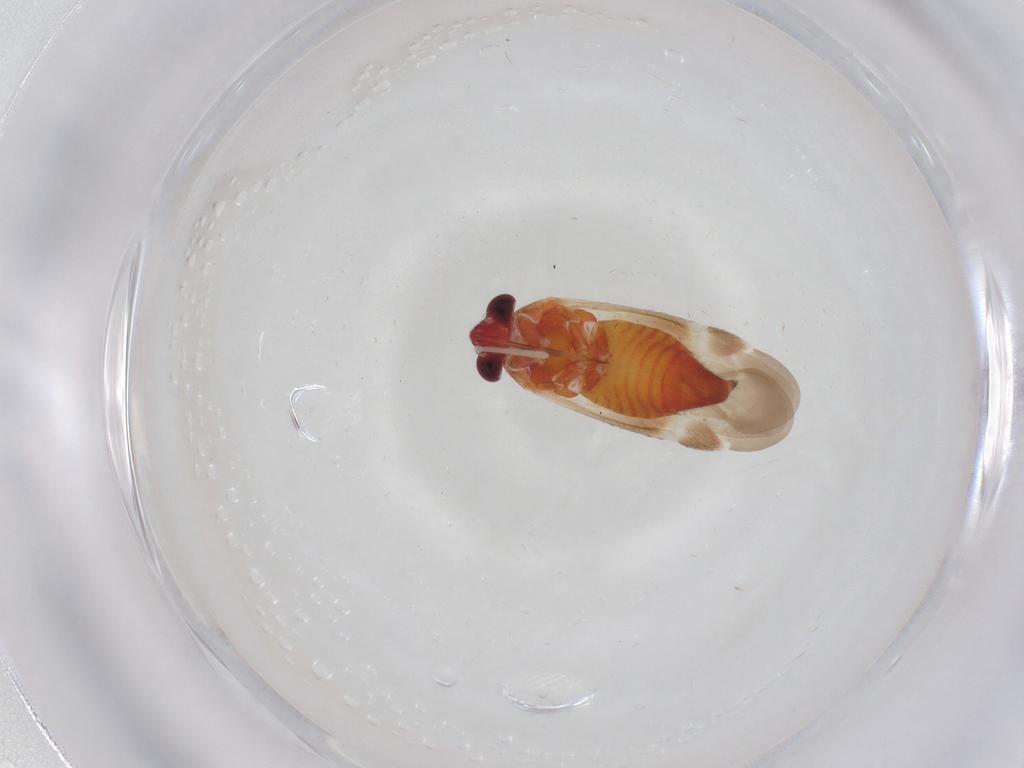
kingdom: Animalia
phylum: Arthropoda
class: Insecta
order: Hemiptera
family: Miridae
